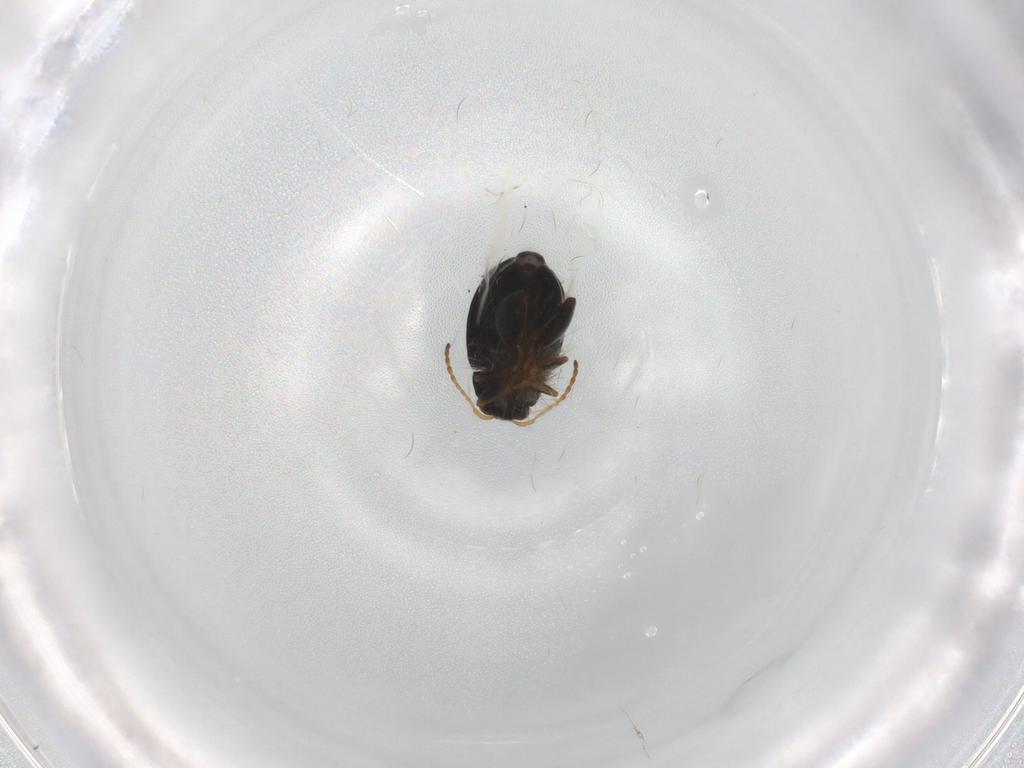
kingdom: Animalia
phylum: Arthropoda
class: Insecta
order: Coleoptera
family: Chrysomelidae
